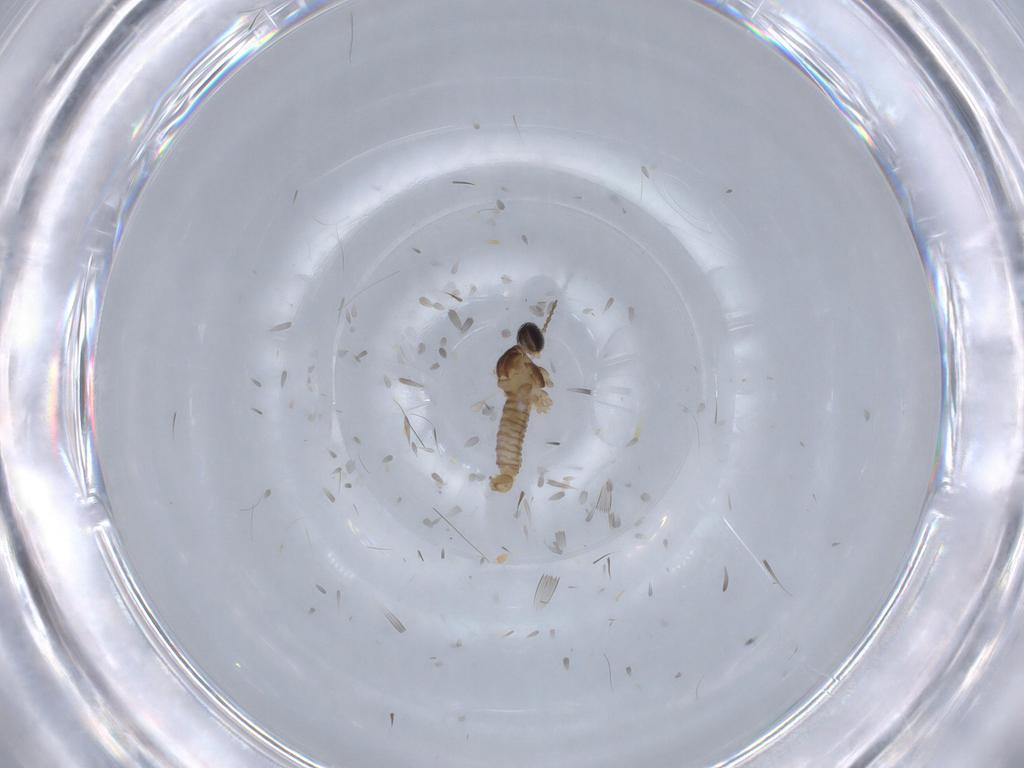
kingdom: Animalia
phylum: Arthropoda
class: Insecta
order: Diptera
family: Cecidomyiidae
